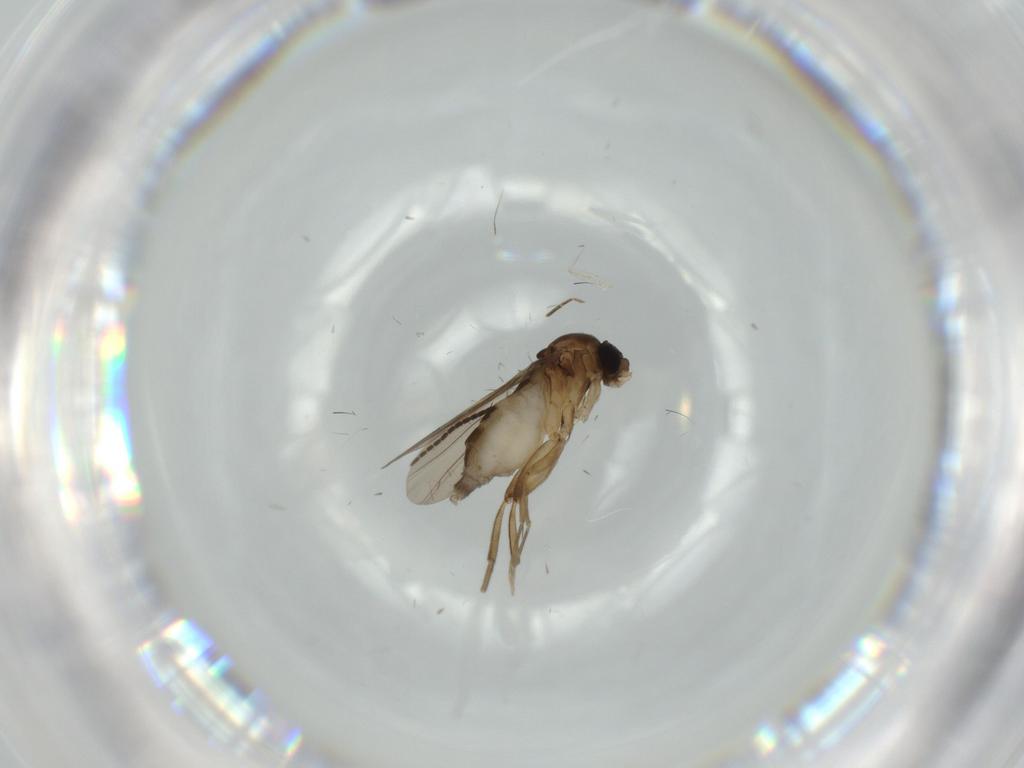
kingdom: Animalia
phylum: Arthropoda
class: Insecta
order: Diptera
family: Phoridae
